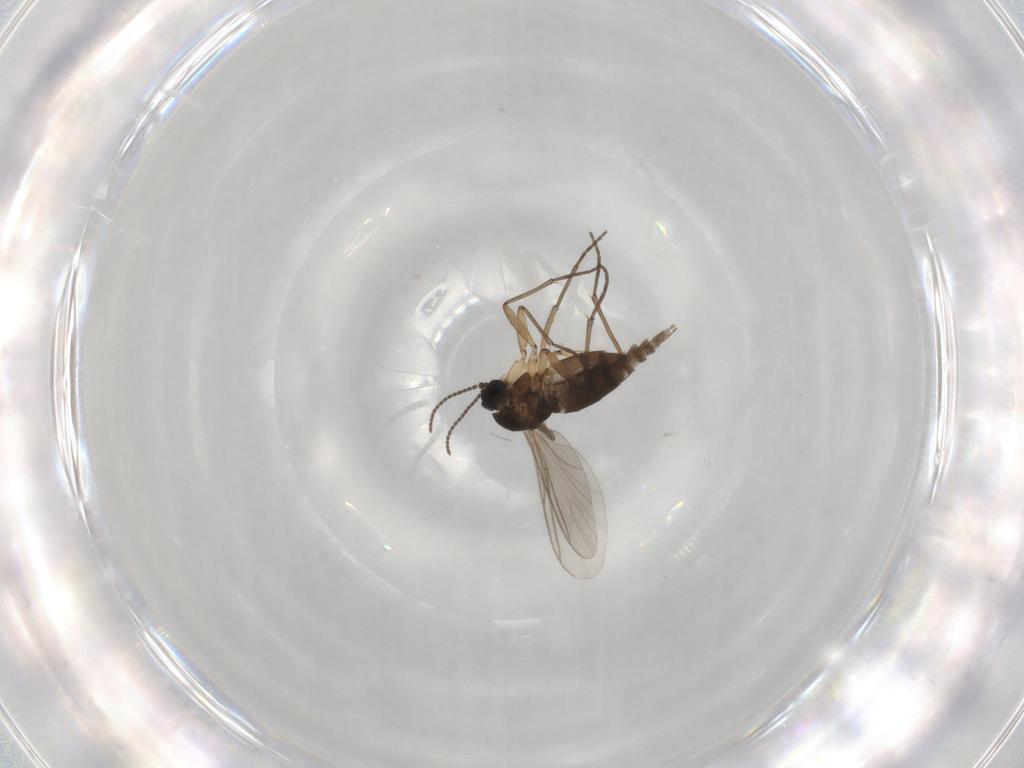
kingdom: Animalia
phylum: Arthropoda
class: Insecta
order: Diptera
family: Sciaridae
